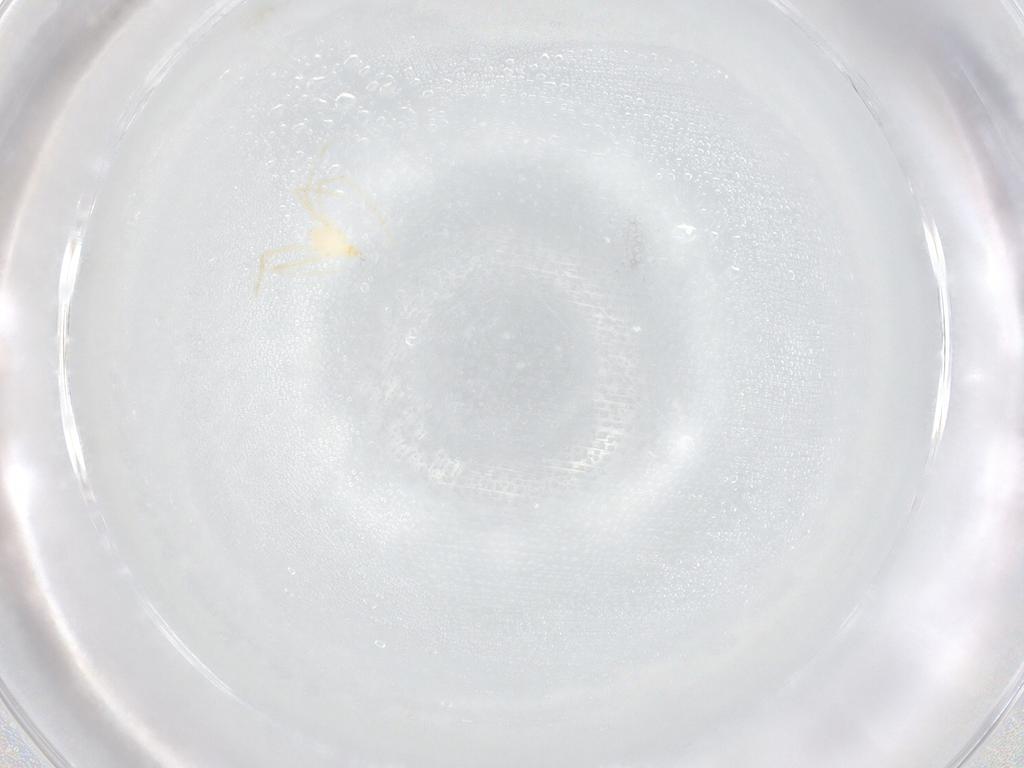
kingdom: Animalia
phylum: Arthropoda
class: Arachnida
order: Trombidiformes
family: Erythraeidae
